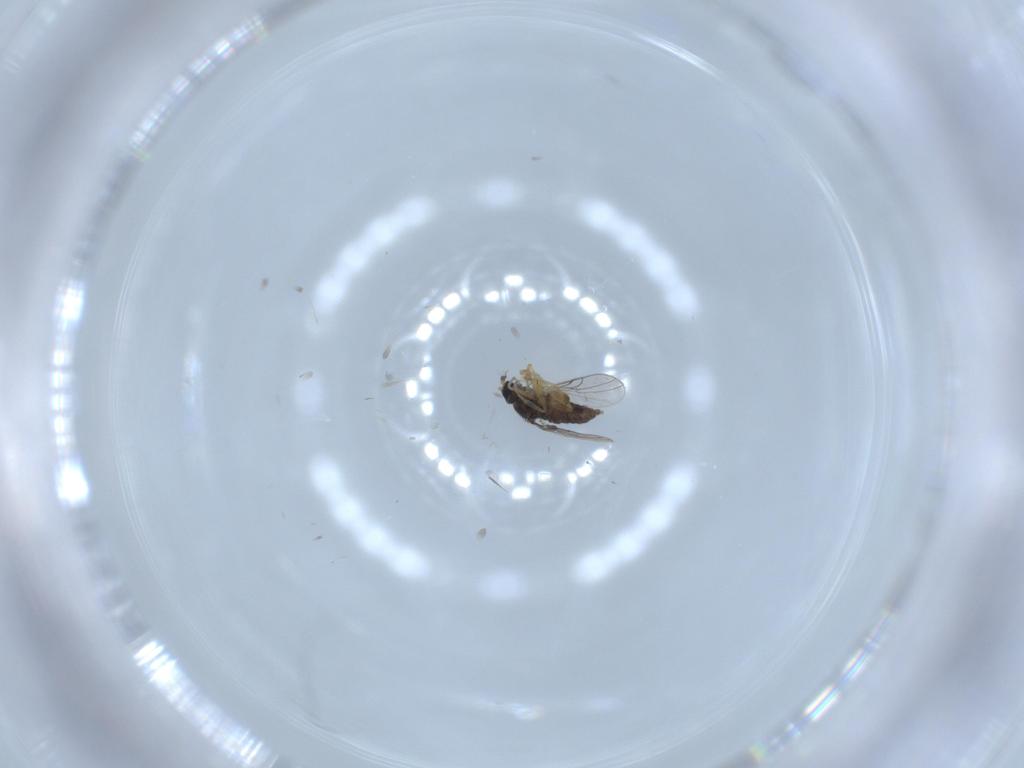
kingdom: Animalia
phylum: Arthropoda
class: Insecta
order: Diptera
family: Hybotidae
